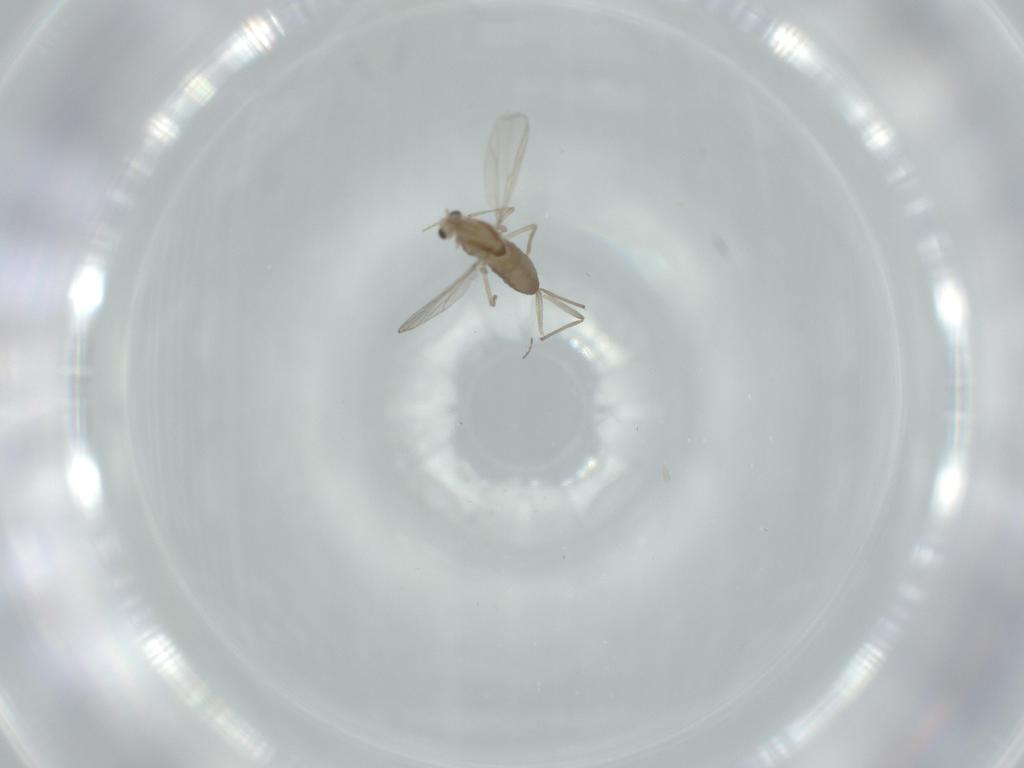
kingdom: Animalia
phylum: Arthropoda
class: Insecta
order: Diptera
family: Chironomidae
